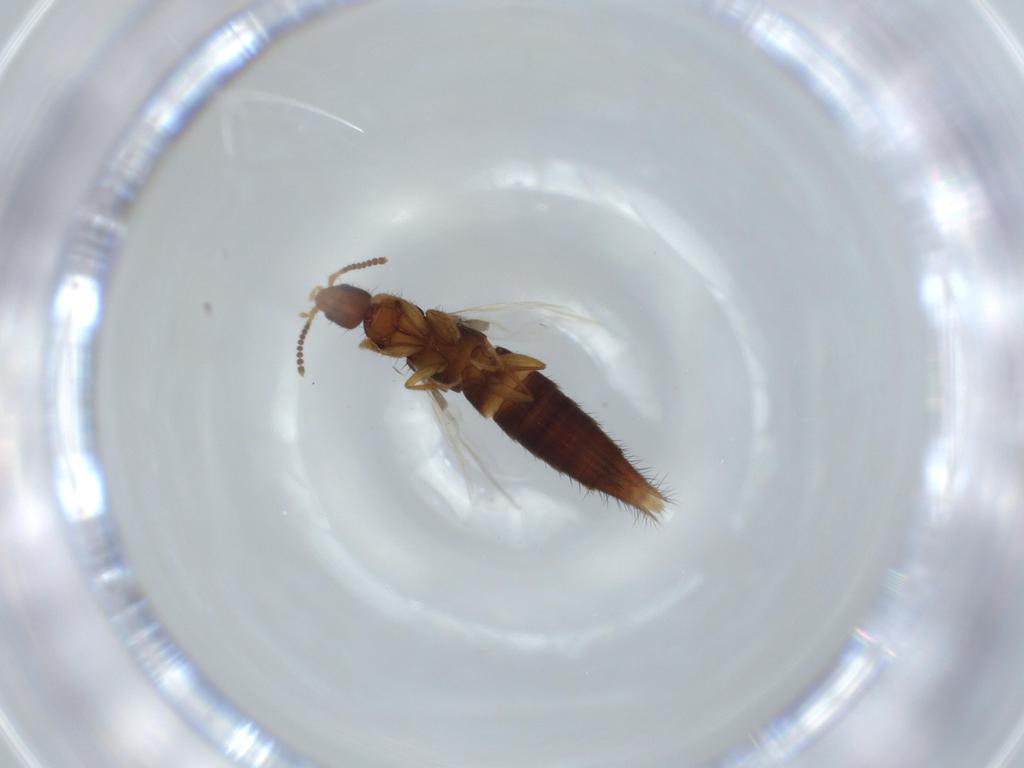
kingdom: Animalia
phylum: Arthropoda
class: Insecta
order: Coleoptera
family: Staphylinidae
